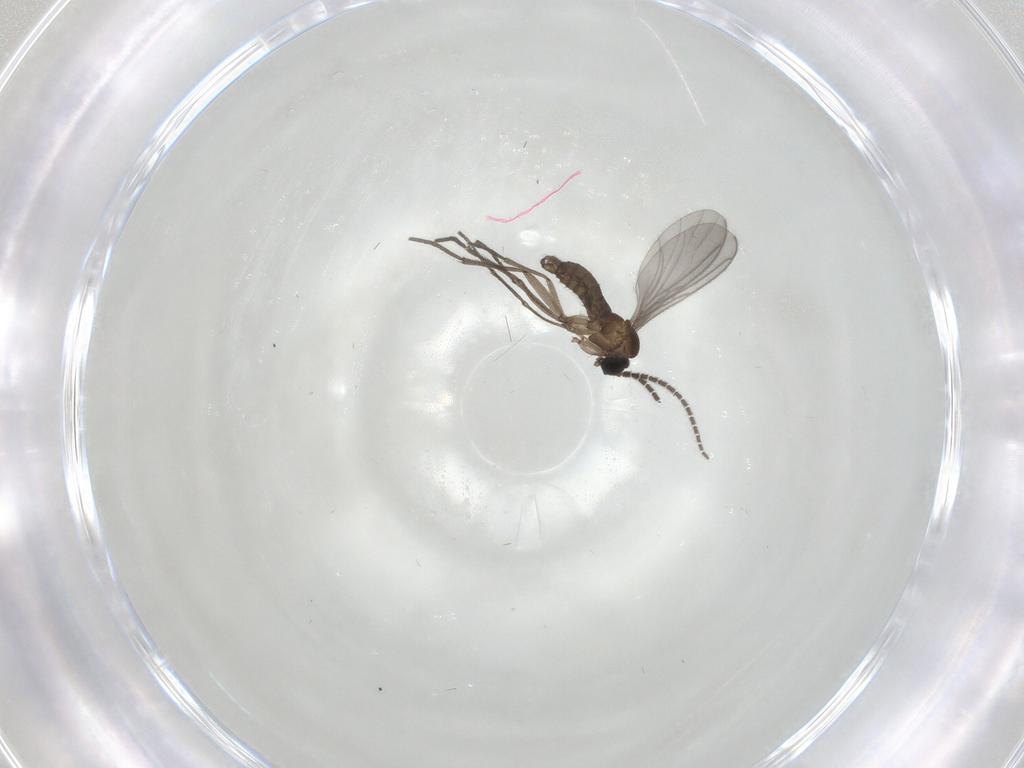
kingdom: Animalia
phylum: Arthropoda
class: Insecta
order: Diptera
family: Sciaridae
